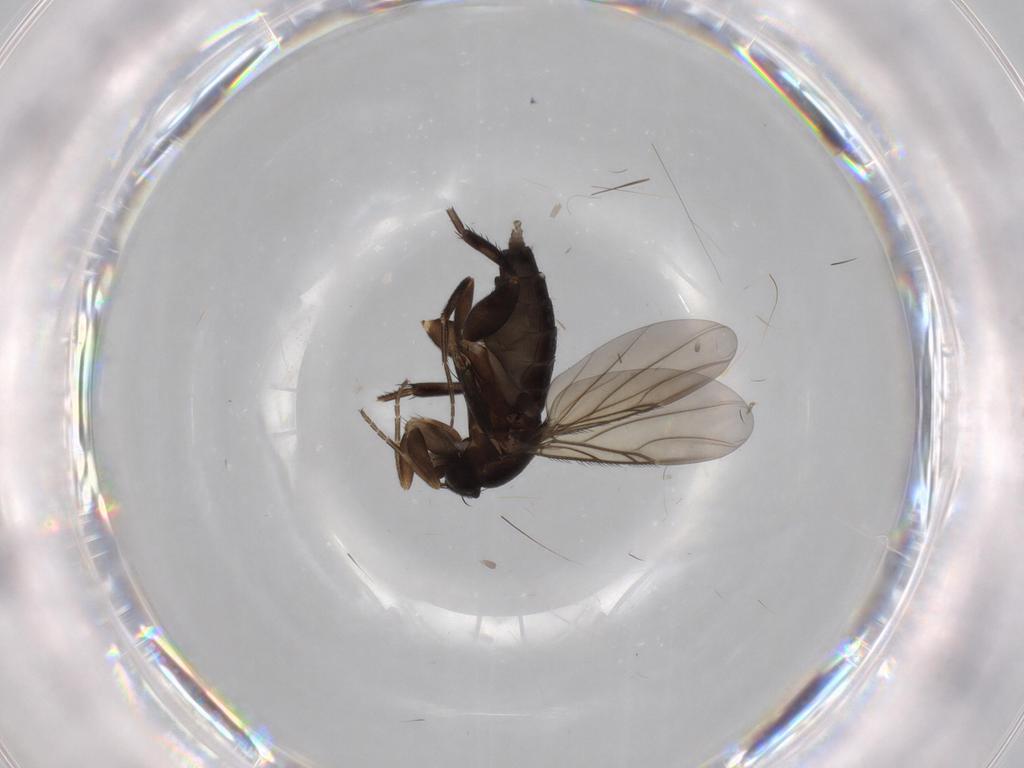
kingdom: Animalia
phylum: Arthropoda
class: Insecta
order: Diptera
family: Phoridae
